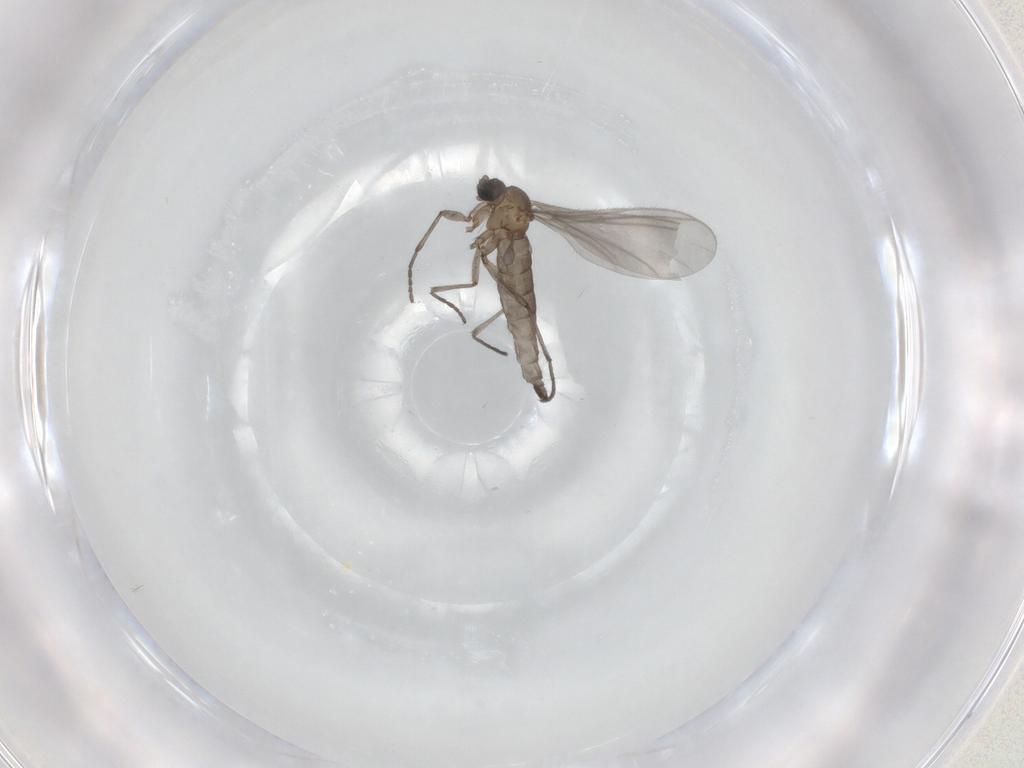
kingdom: Animalia
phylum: Arthropoda
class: Insecta
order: Diptera
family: Sciaridae
